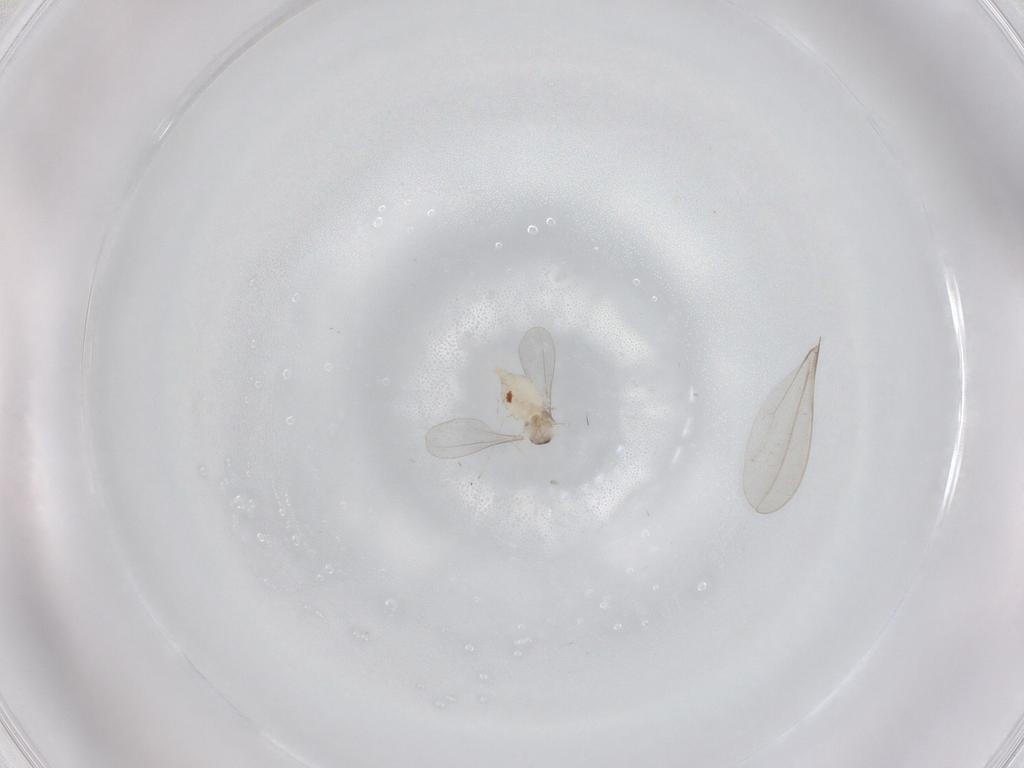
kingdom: Animalia
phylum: Arthropoda
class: Insecta
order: Diptera
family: Cecidomyiidae
